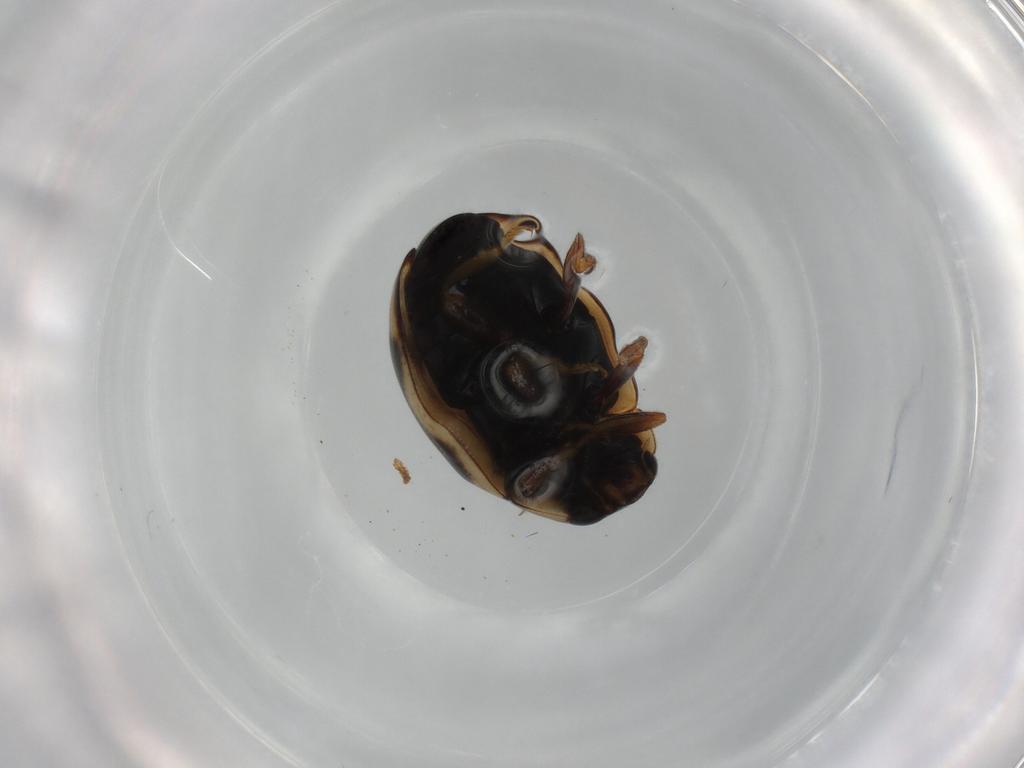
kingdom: Animalia
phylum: Arthropoda
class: Insecta
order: Coleoptera
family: Coccinellidae
